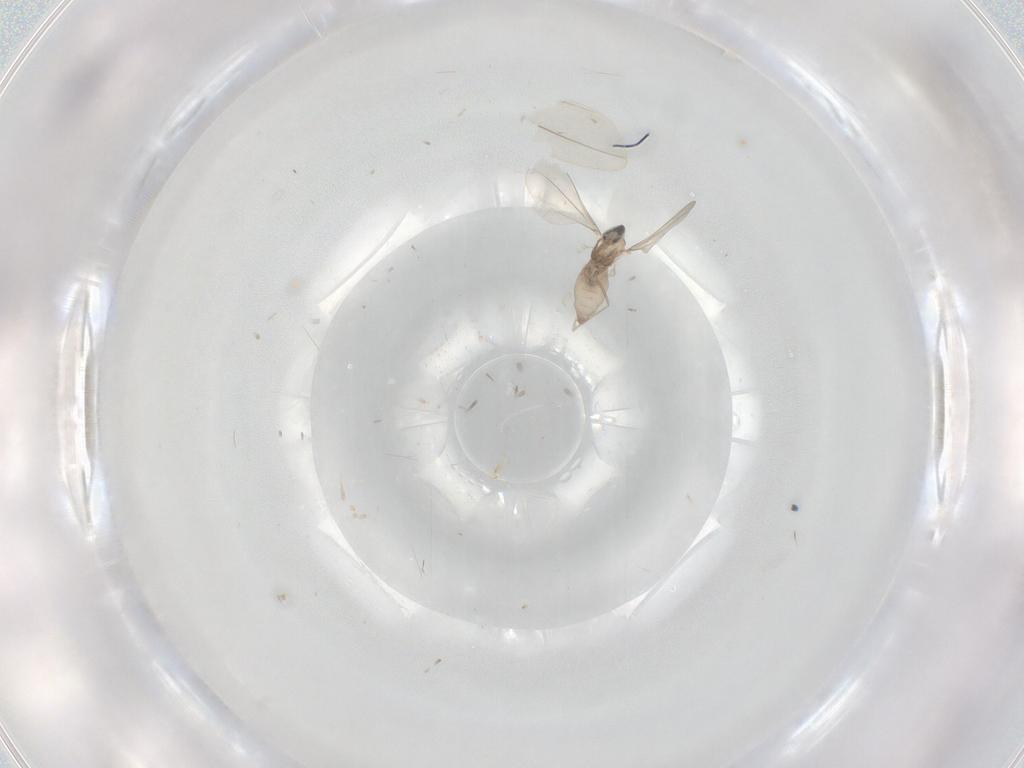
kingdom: Animalia
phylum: Arthropoda
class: Insecta
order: Diptera
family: Cecidomyiidae
